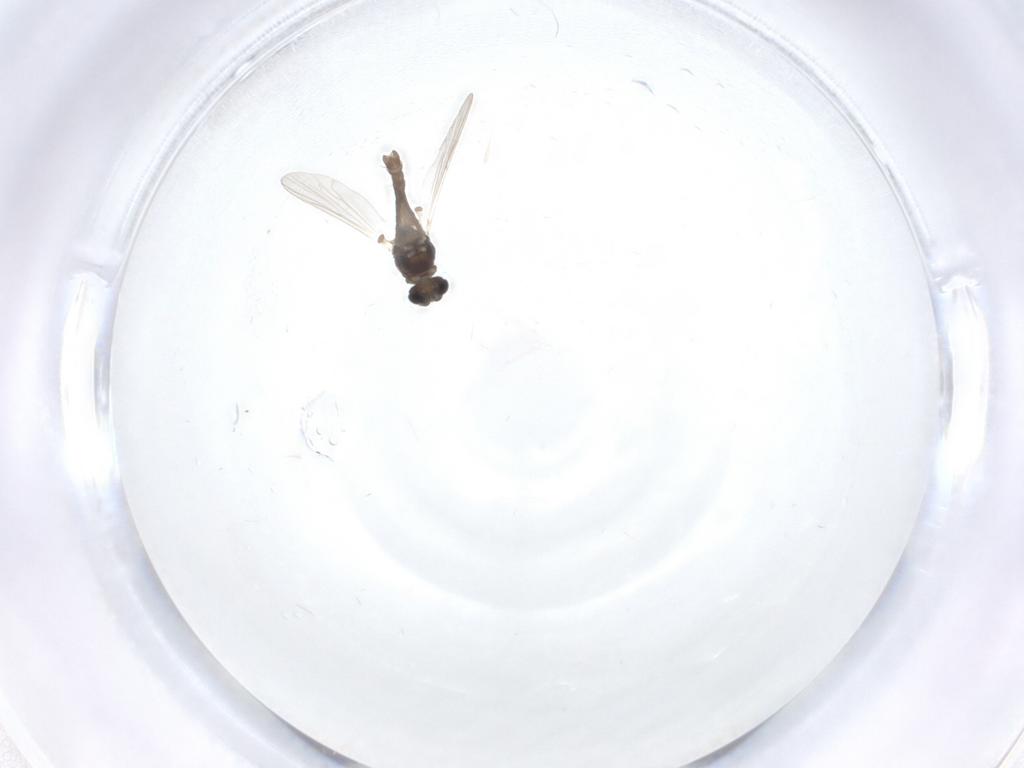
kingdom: Animalia
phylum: Arthropoda
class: Insecta
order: Diptera
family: Chironomidae
